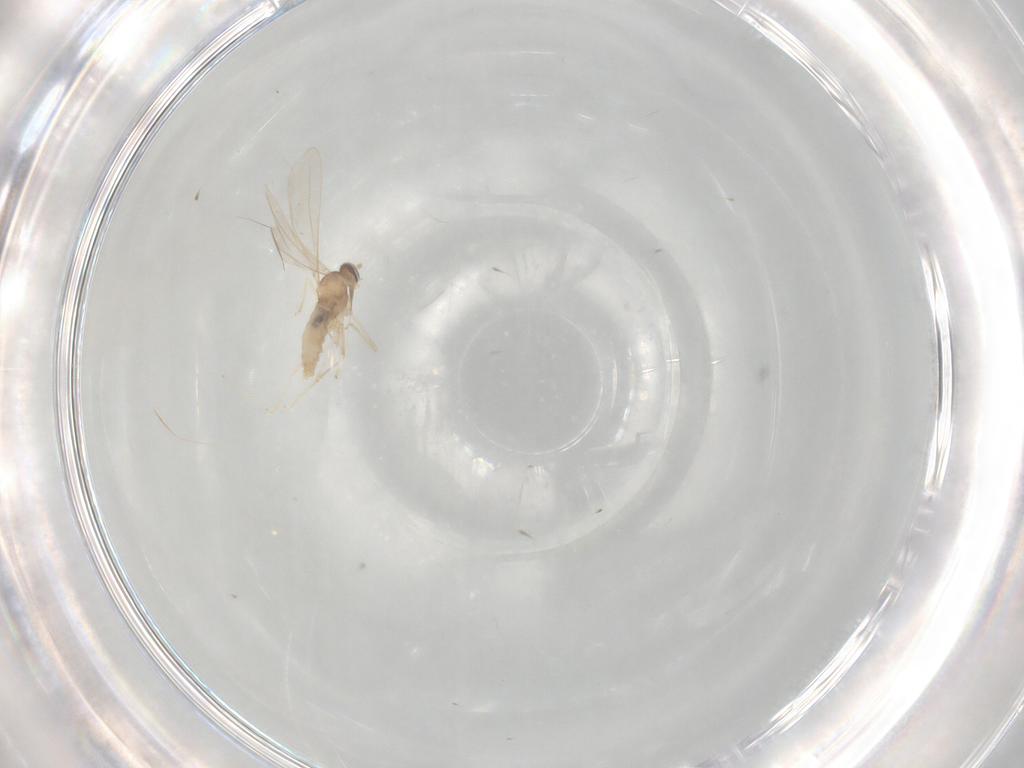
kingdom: Animalia
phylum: Arthropoda
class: Insecta
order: Diptera
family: Cecidomyiidae
